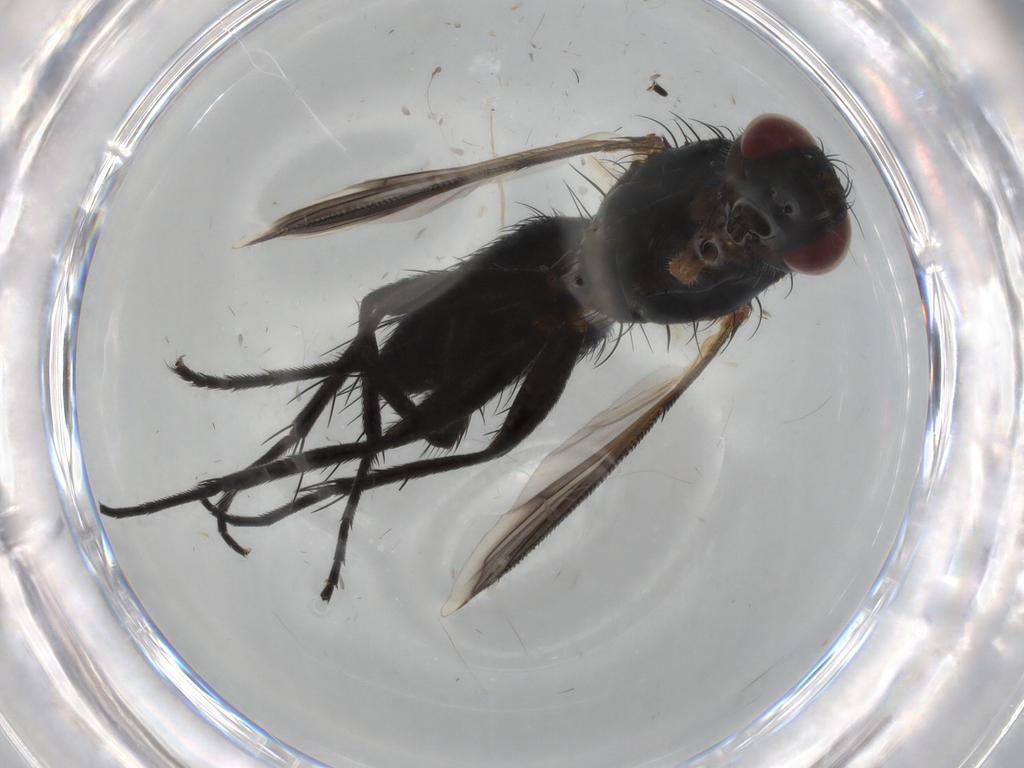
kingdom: Animalia
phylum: Arthropoda
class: Insecta
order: Diptera
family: Tachinidae
